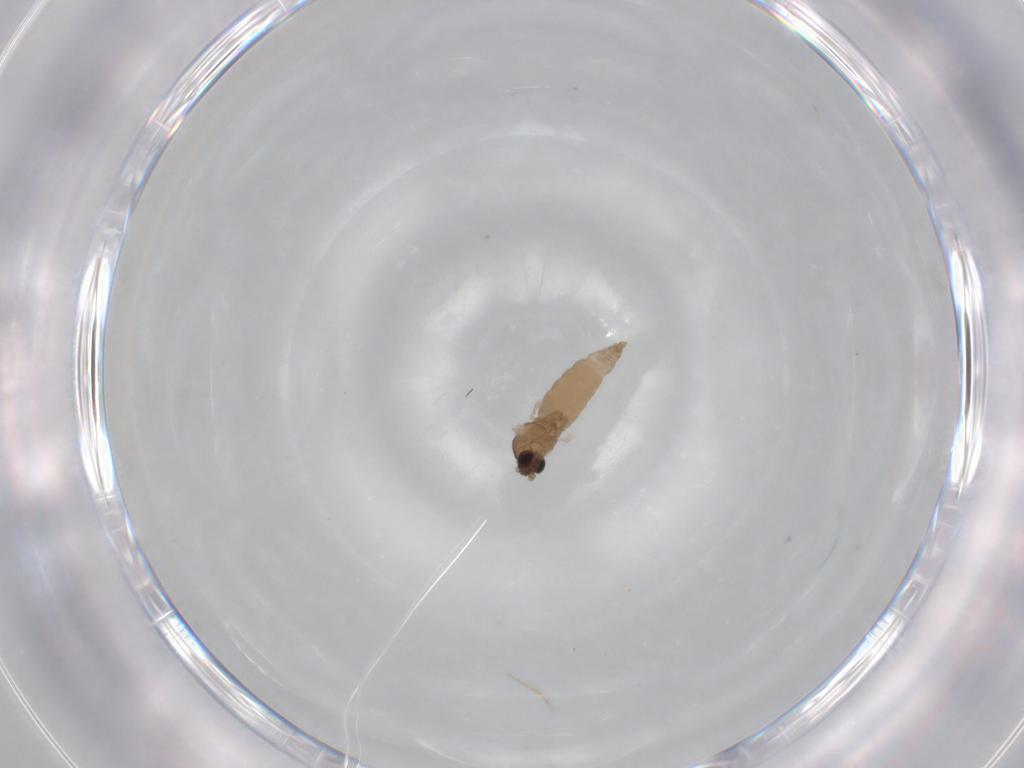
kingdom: Animalia
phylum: Arthropoda
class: Insecta
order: Diptera
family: Cecidomyiidae
